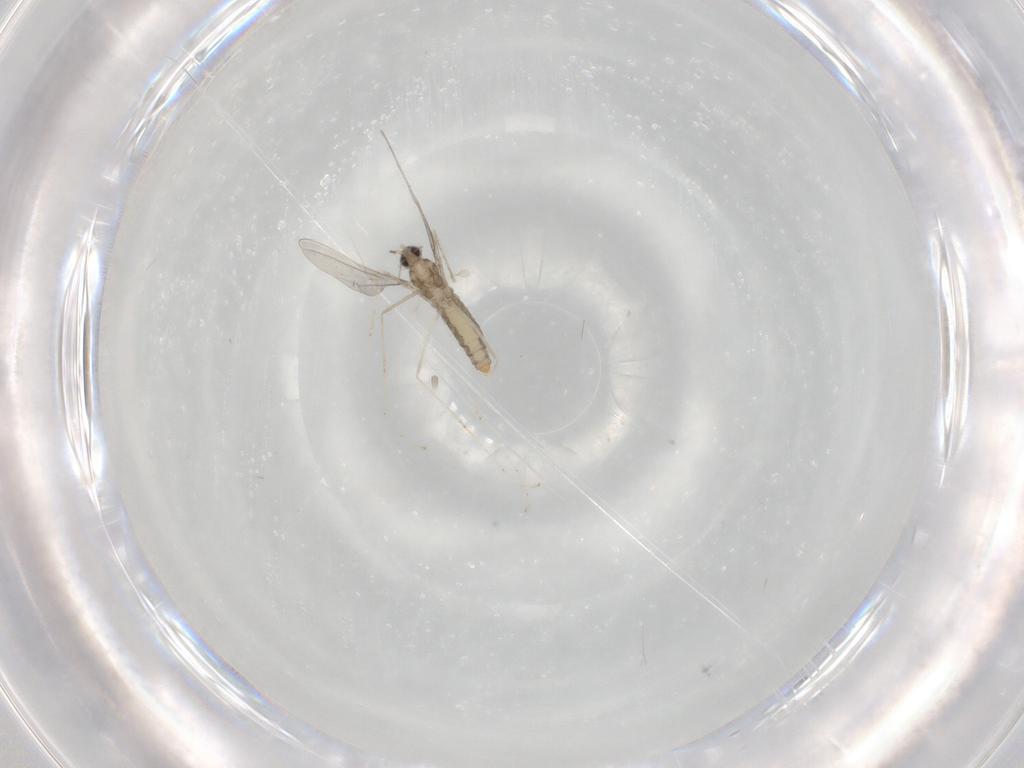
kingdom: Animalia
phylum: Arthropoda
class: Insecta
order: Diptera
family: Cecidomyiidae
